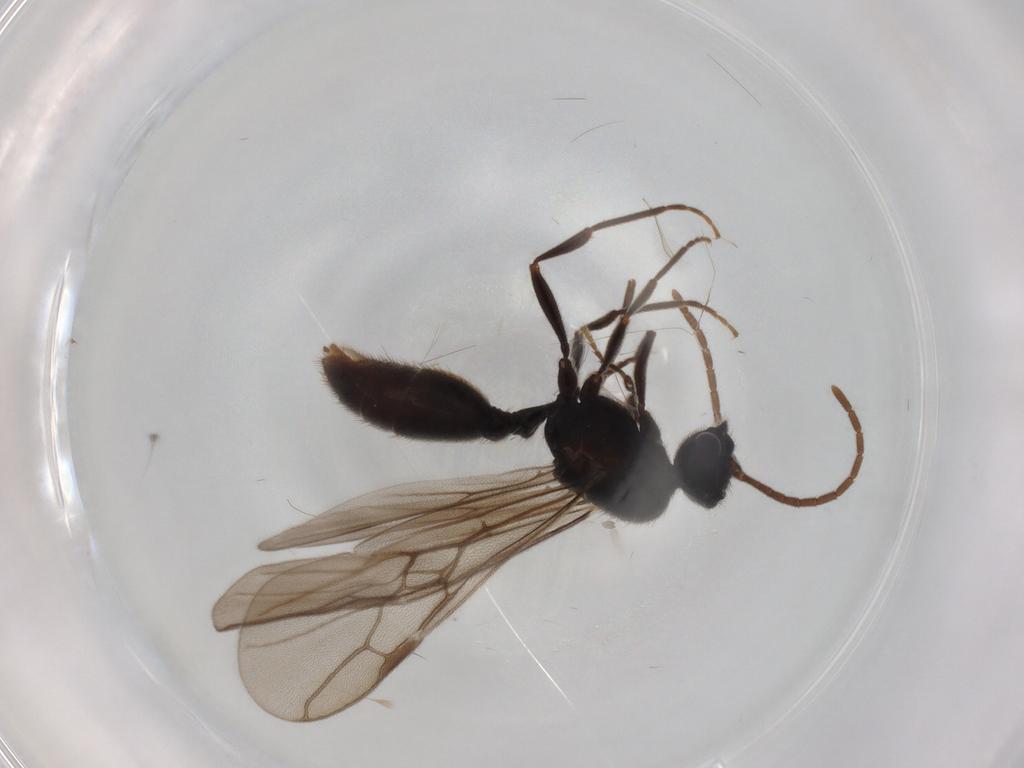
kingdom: Animalia
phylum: Arthropoda
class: Insecta
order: Hymenoptera
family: Formicidae
